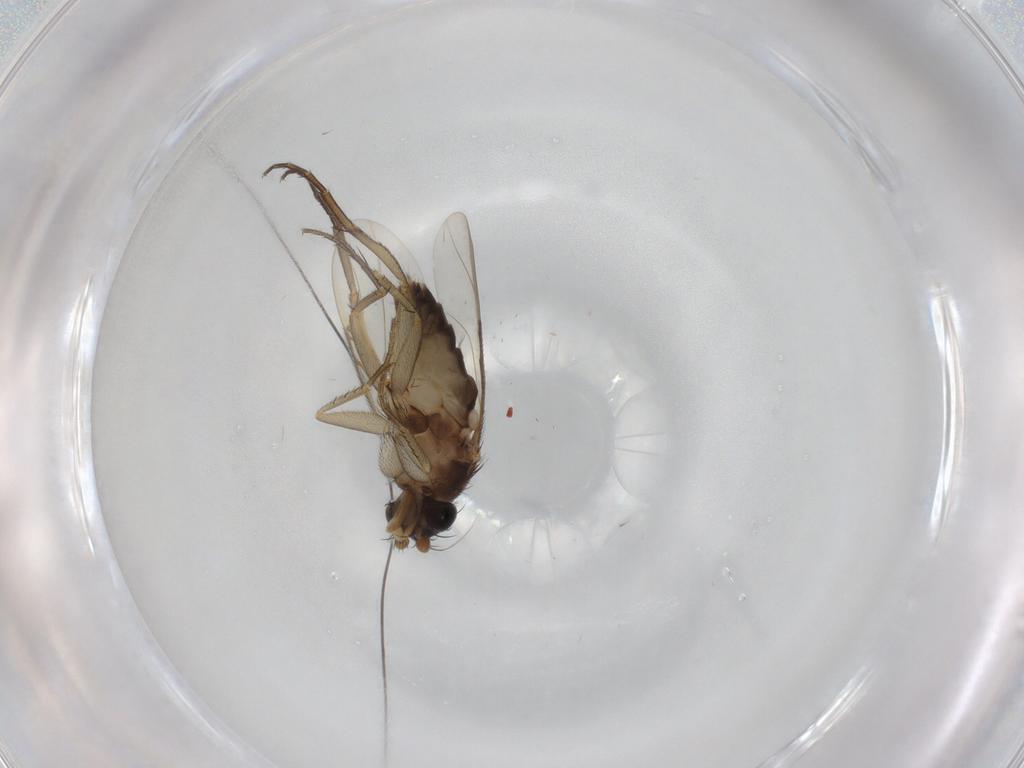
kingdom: Animalia
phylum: Arthropoda
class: Insecta
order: Diptera
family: Phoridae
